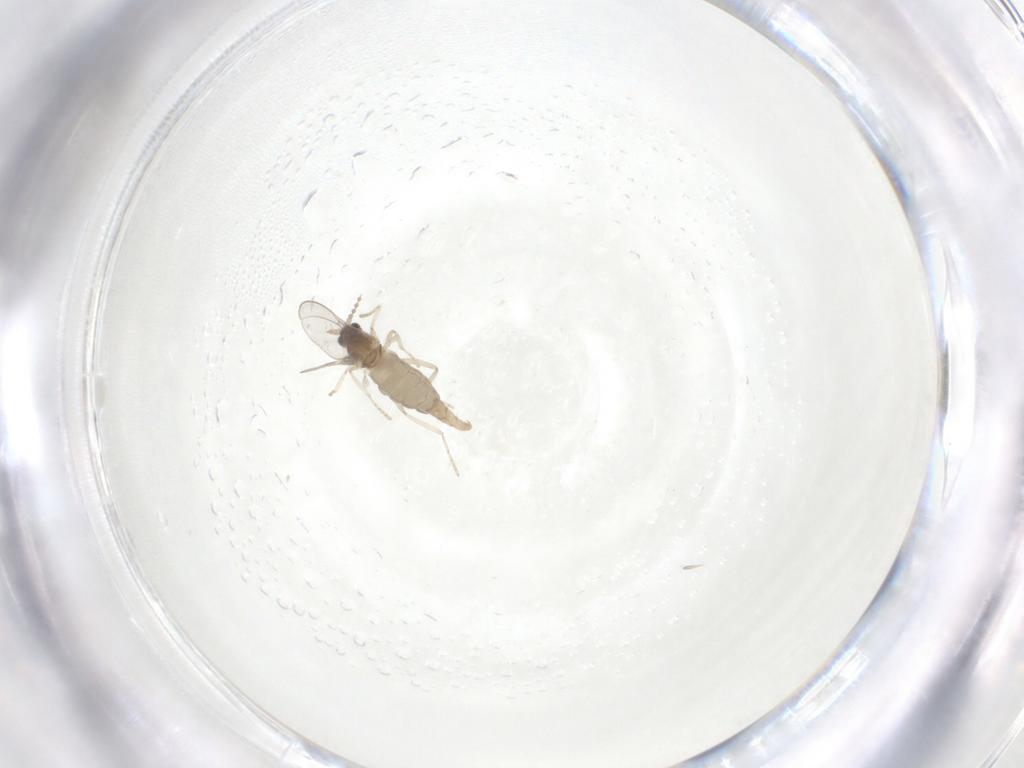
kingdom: Animalia
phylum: Arthropoda
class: Insecta
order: Diptera
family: Cecidomyiidae
